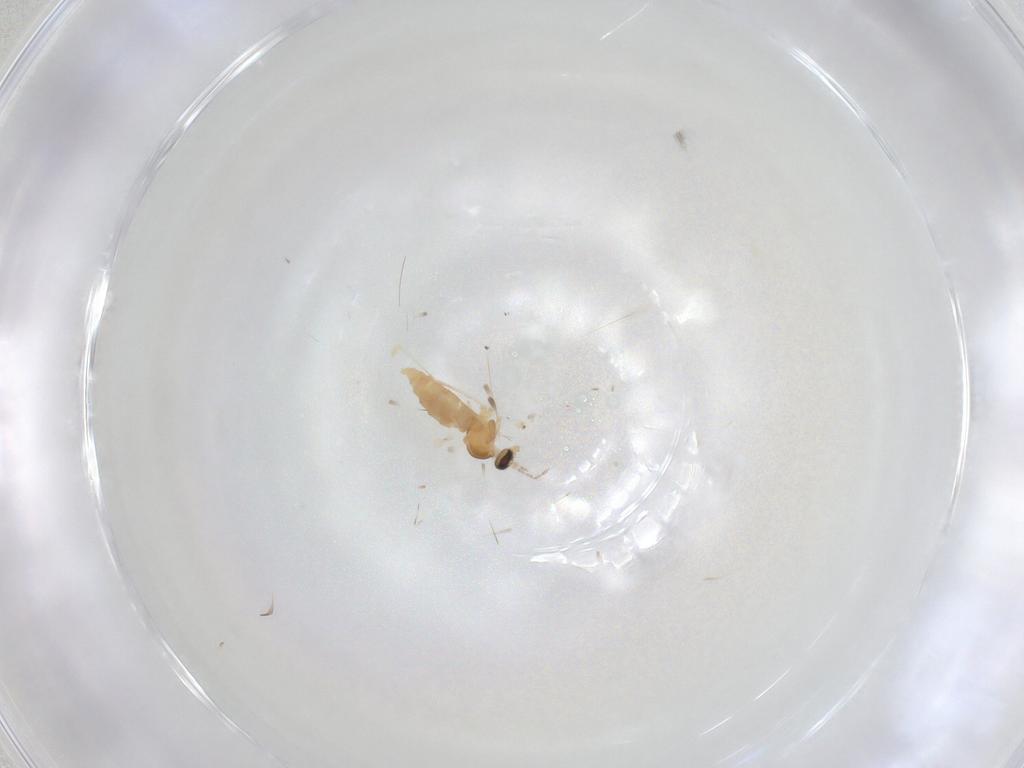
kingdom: Animalia
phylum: Arthropoda
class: Insecta
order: Diptera
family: Cecidomyiidae
